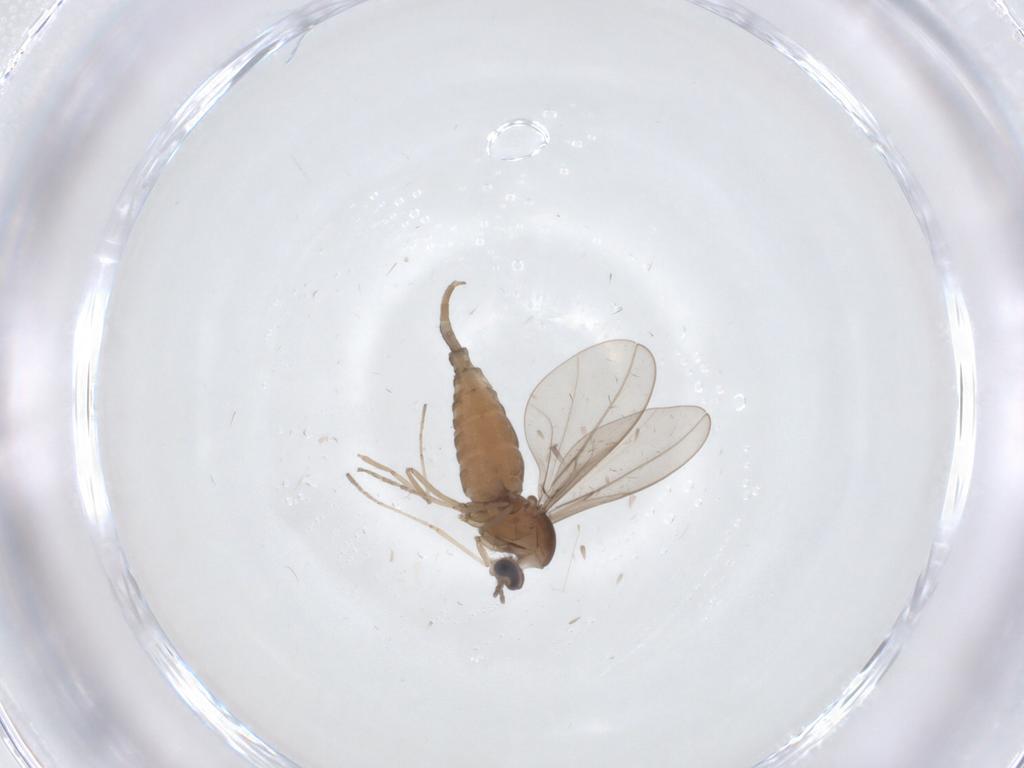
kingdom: Animalia
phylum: Arthropoda
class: Insecta
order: Diptera
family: Cecidomyiidae
